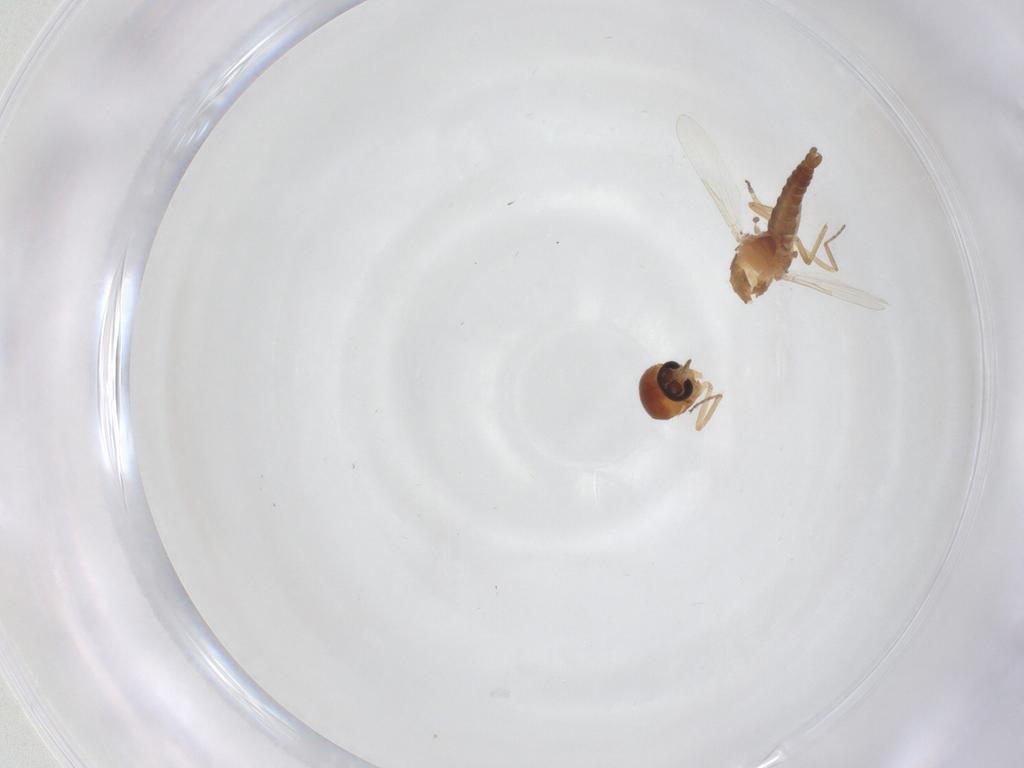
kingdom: Animalia
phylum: Arthropoda
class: Insecta
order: Diptera
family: Ceratopogonidae
